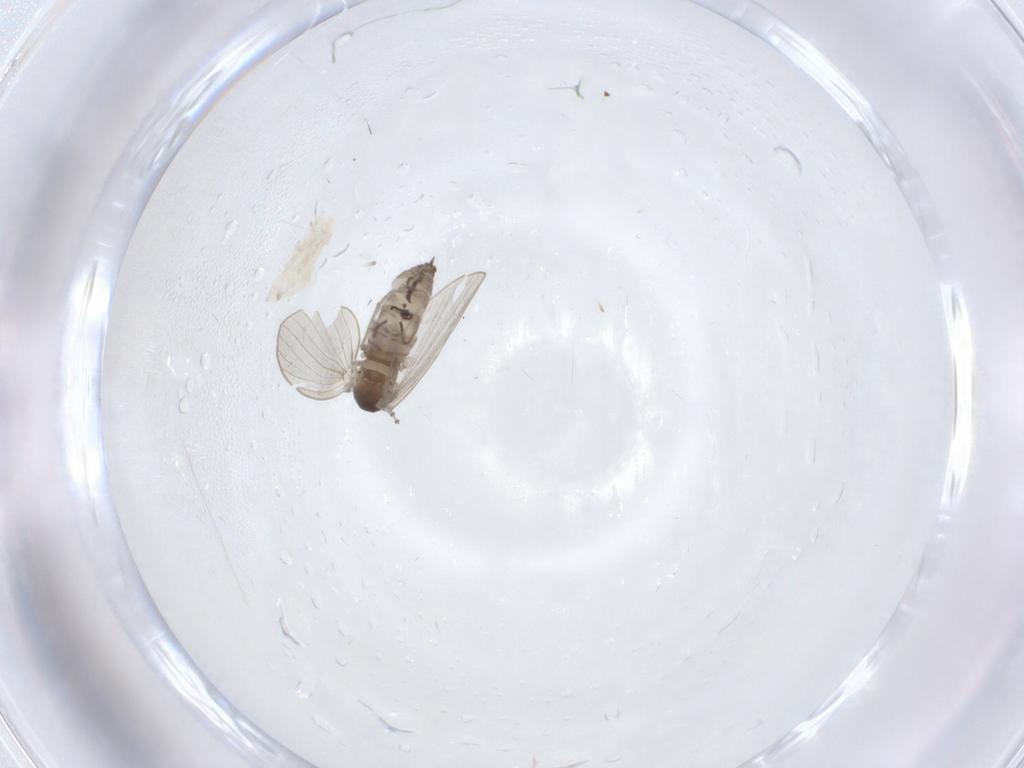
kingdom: Animalia
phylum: Arthropoda
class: Insecta
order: Diptera
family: Psychodidae
